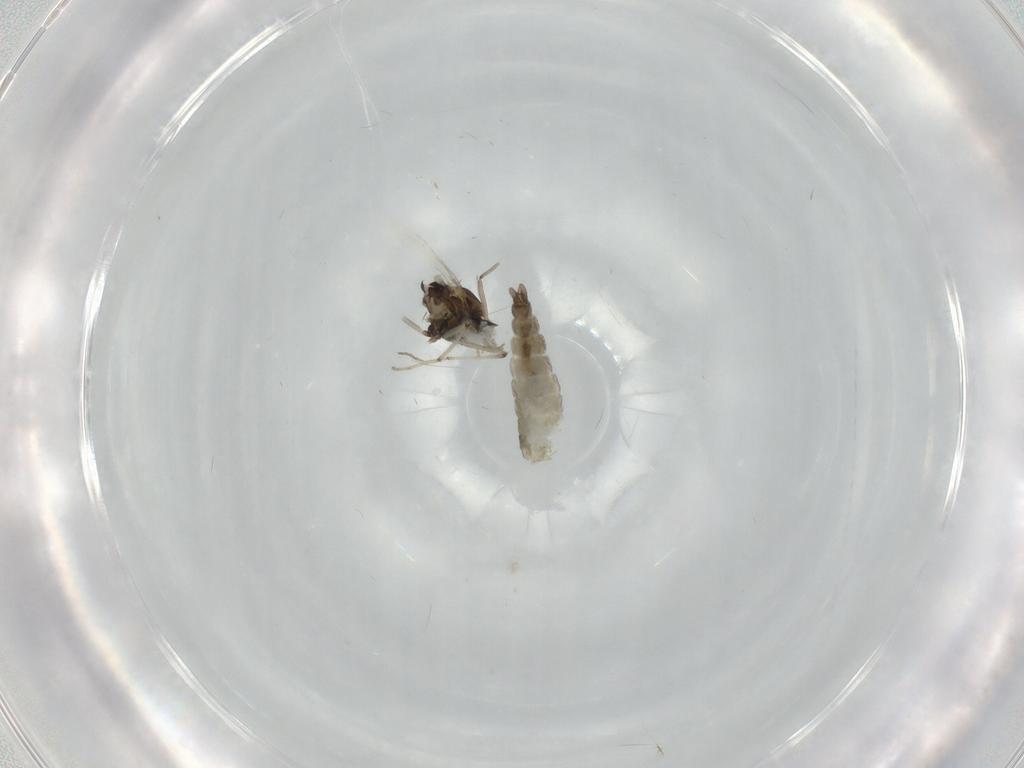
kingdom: Animalia
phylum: Arthropoda
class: Insecta
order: Diptera
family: Chironomidae
